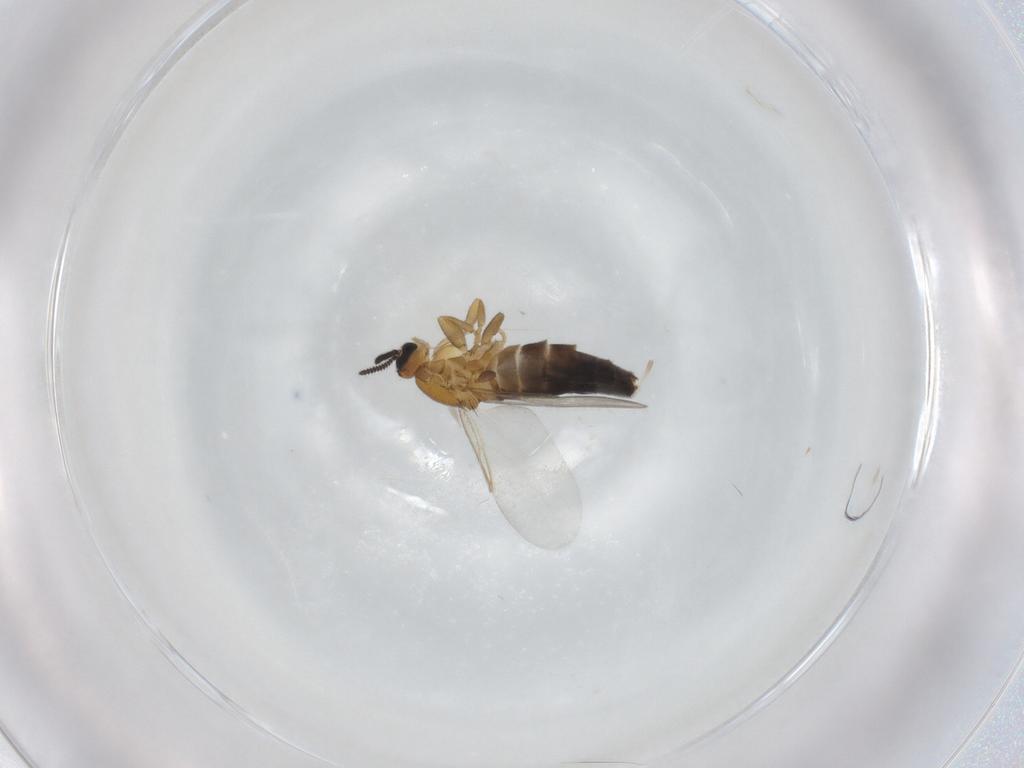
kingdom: Animalia
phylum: Arthropoda
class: Insecta
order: Diptera
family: Scatopsidae
